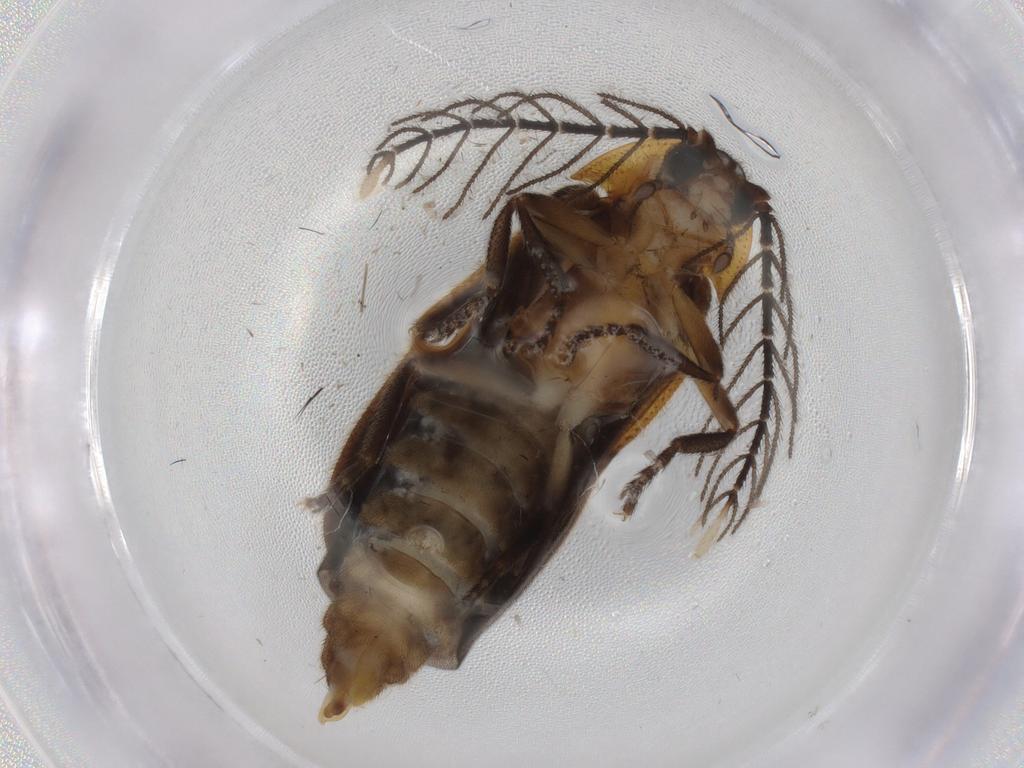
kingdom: Animalia
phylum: Arthropoda
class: Insecta
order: Coleoptera
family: Lampyridae
